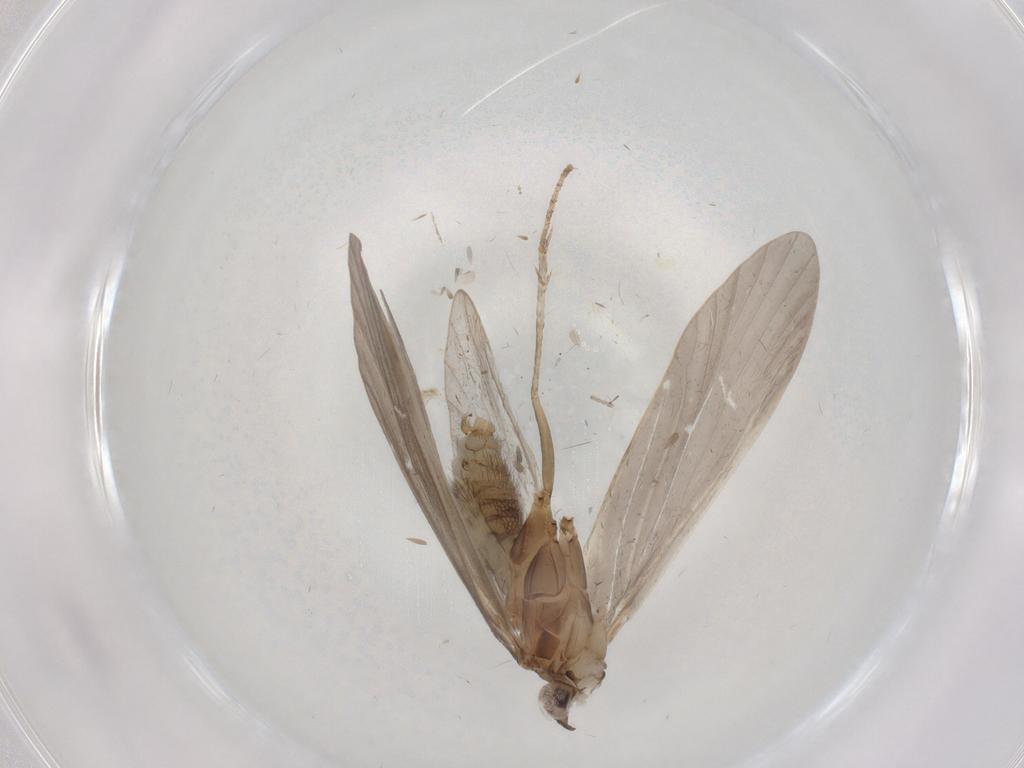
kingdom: Animalia
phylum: Arthropoda
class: Insecta
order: Trichoptera
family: Helicopsychidae
